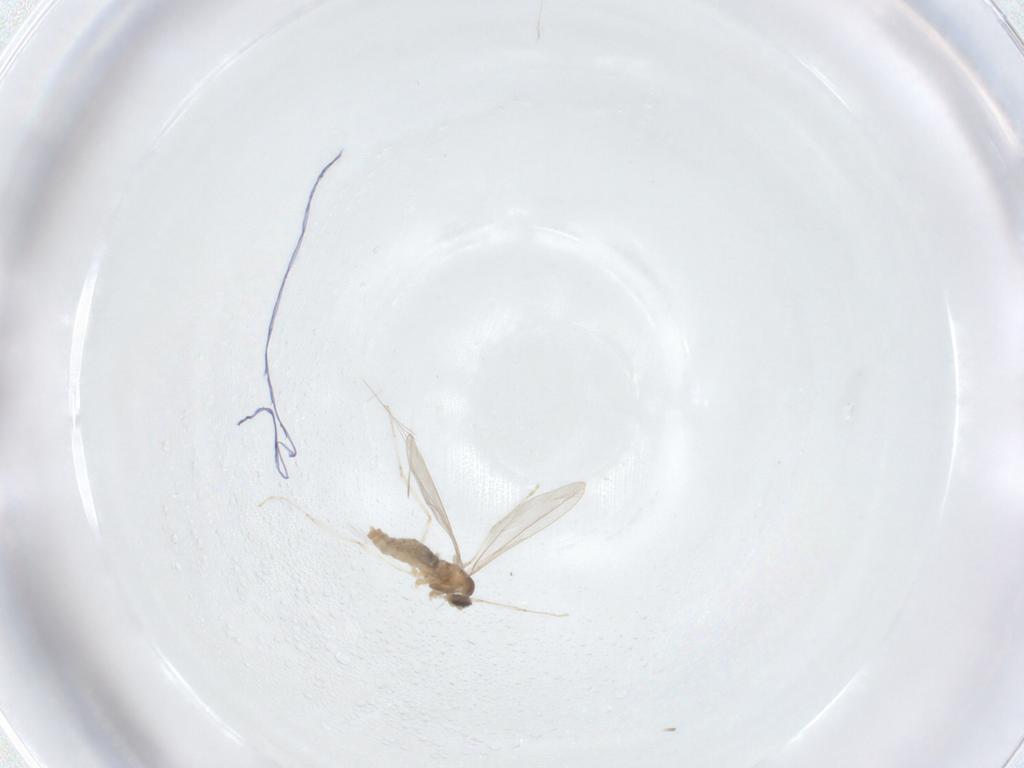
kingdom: Animalia
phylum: Arthropoda
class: Insecta
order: Diptera
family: Cecidomyiidae
